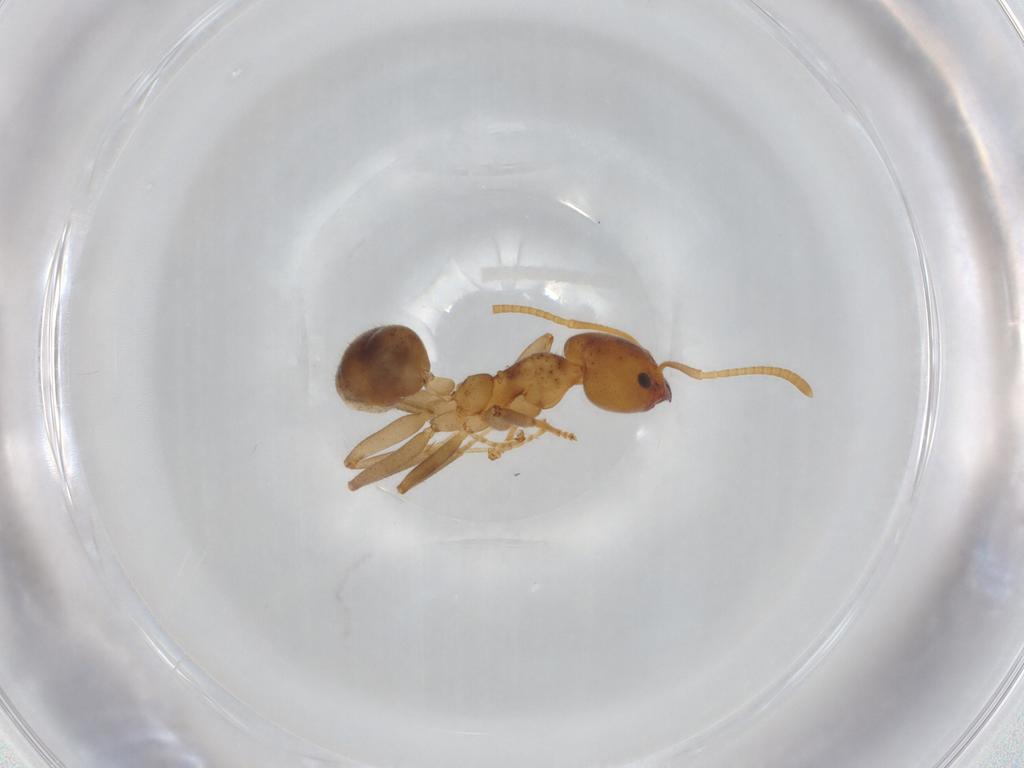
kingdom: Animalia
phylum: Arthropoda
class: Insecta
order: Hymenoptera
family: Formicidae
